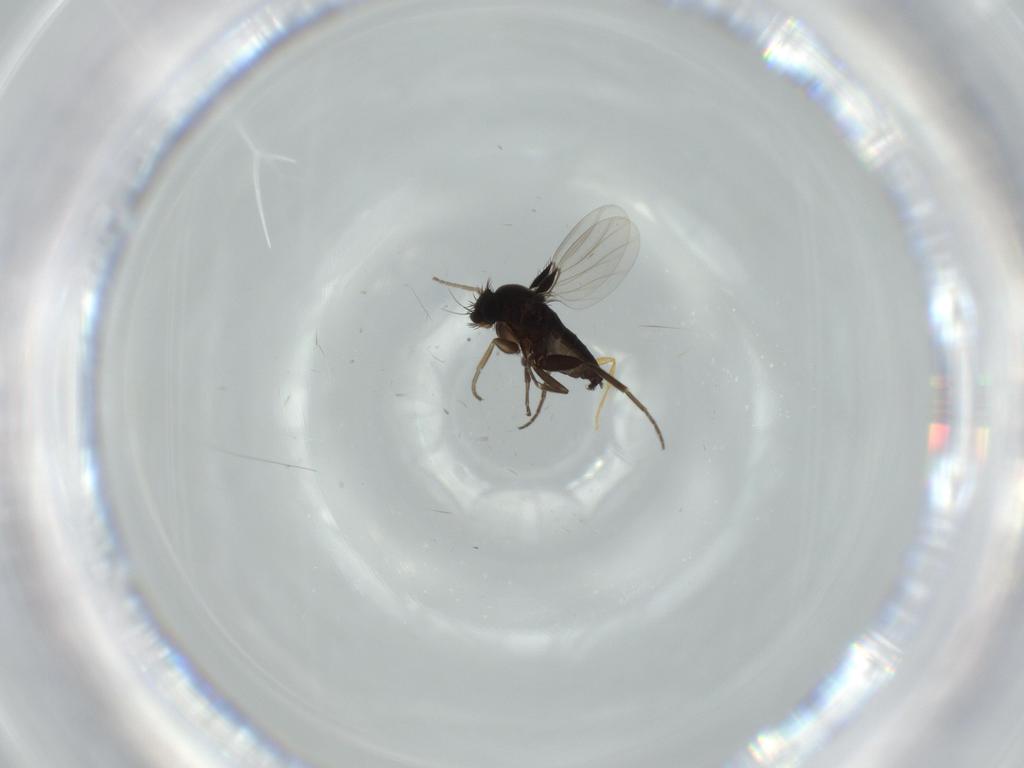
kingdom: Animalia
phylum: Arthropoda
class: Insecta
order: Diptera
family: Phoridae
